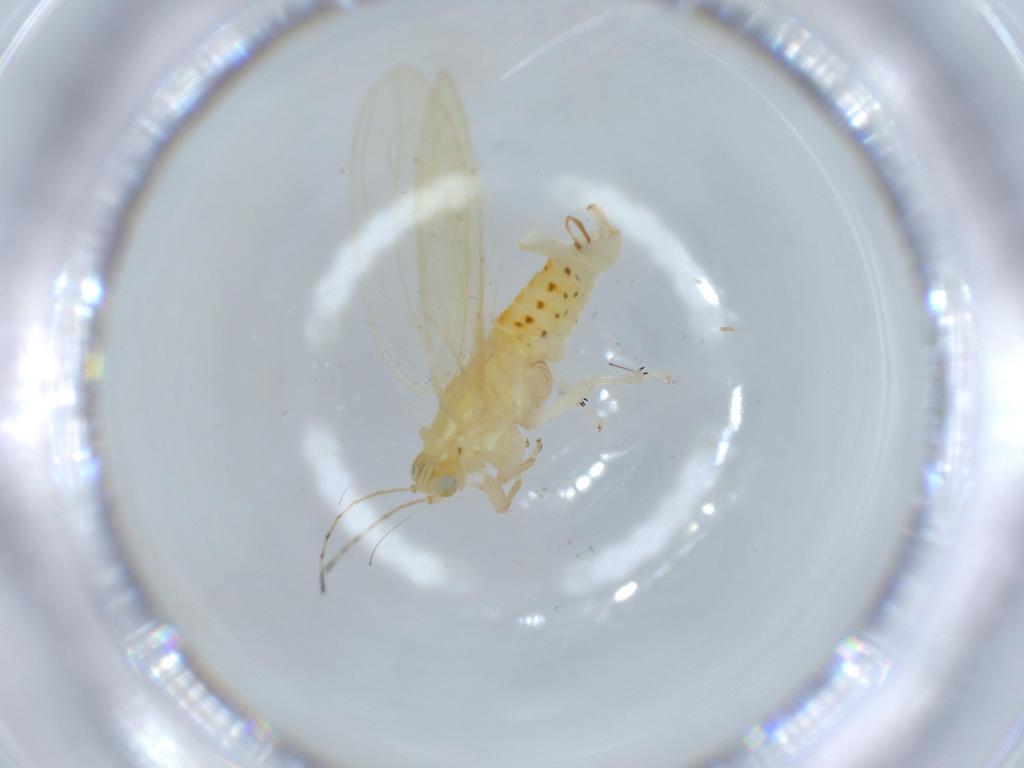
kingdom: Animalia
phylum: Arthropoda
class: Insecta
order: Hemiptera
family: Triozidae
